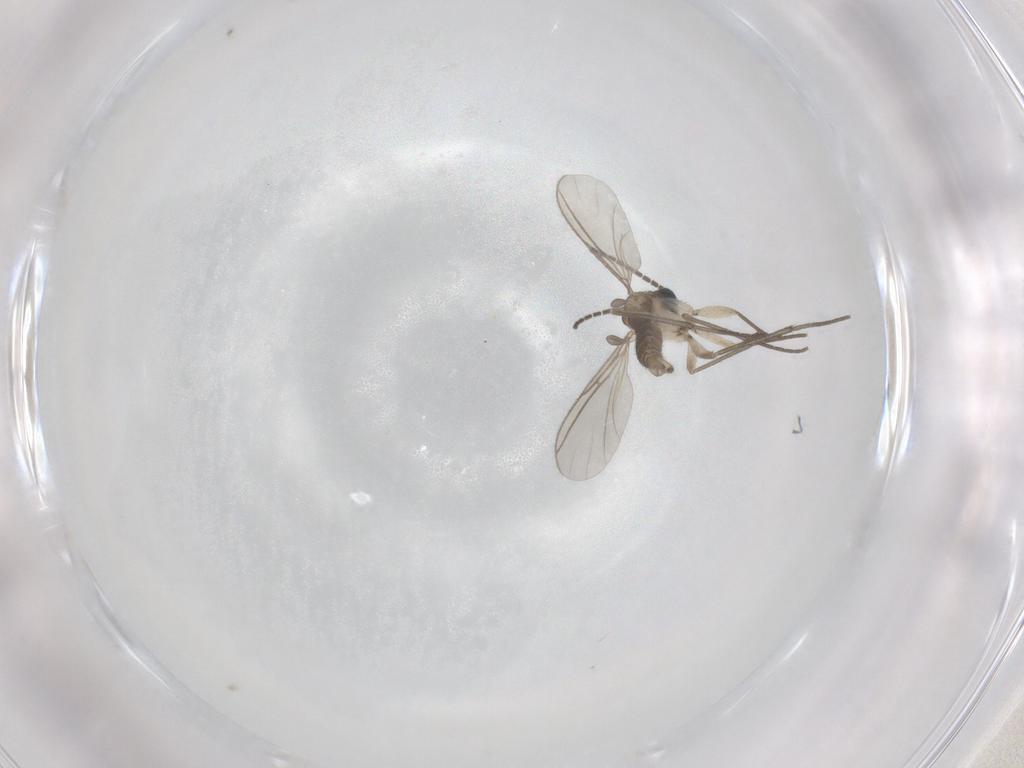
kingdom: Animalia
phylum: Arthropoda
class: Insecta
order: Diptera
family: Sciaridae
